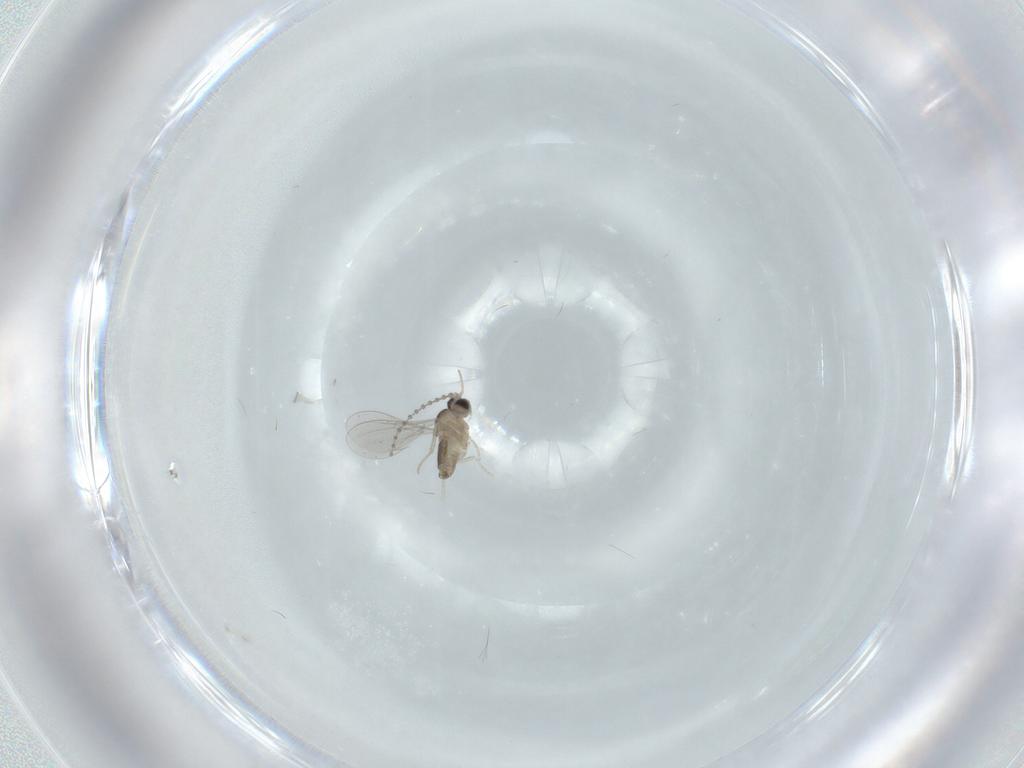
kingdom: Animalia
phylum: Arthropoda
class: Insecta
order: Diptera
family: Cecidomyiidae
